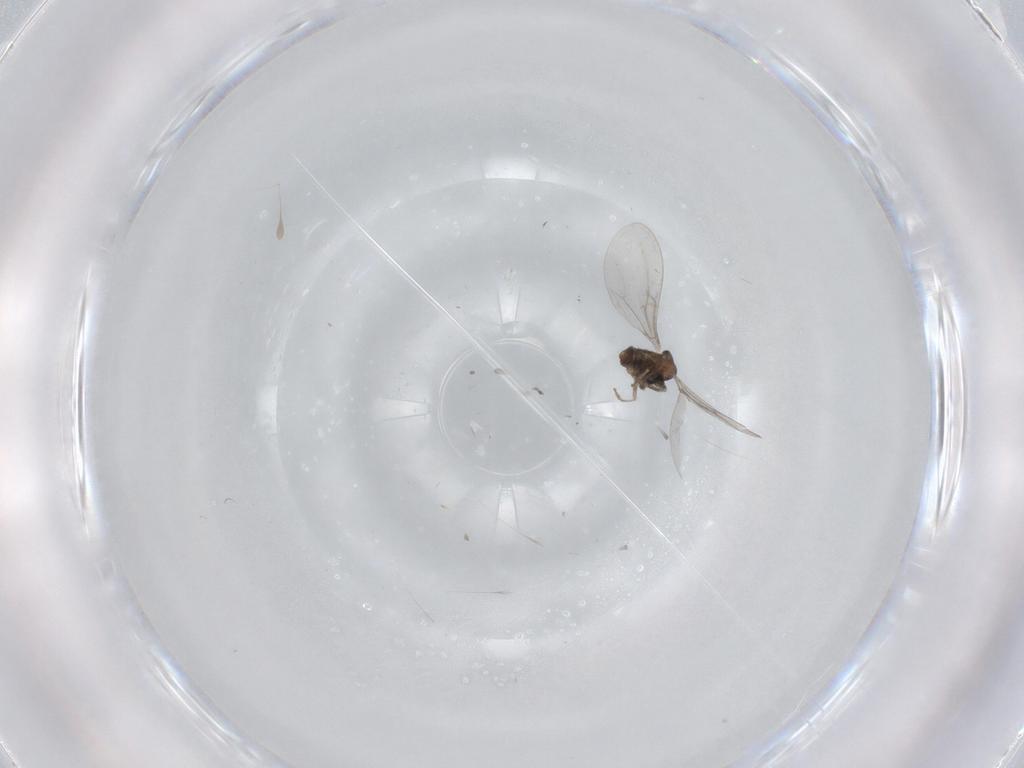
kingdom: Animalia
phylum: Arthropoda
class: Insecta
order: Diptera
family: Cecidomyiidae
